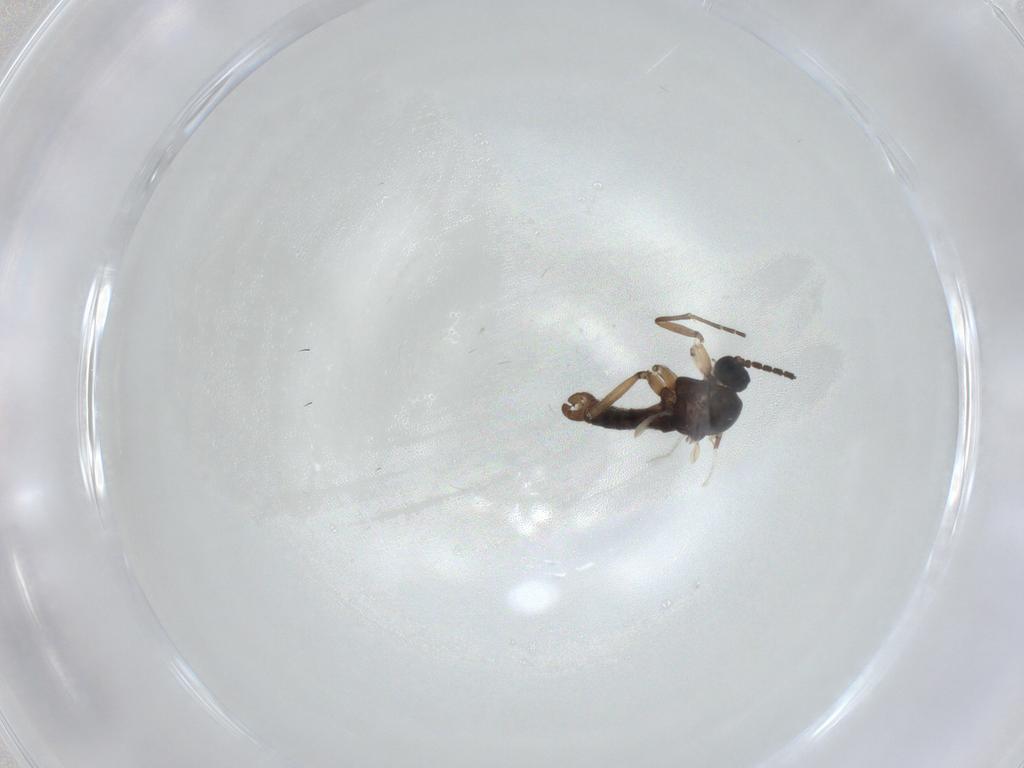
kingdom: Animalia
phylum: Arthropoda
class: Insecta
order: Diptera
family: Sciaridae
